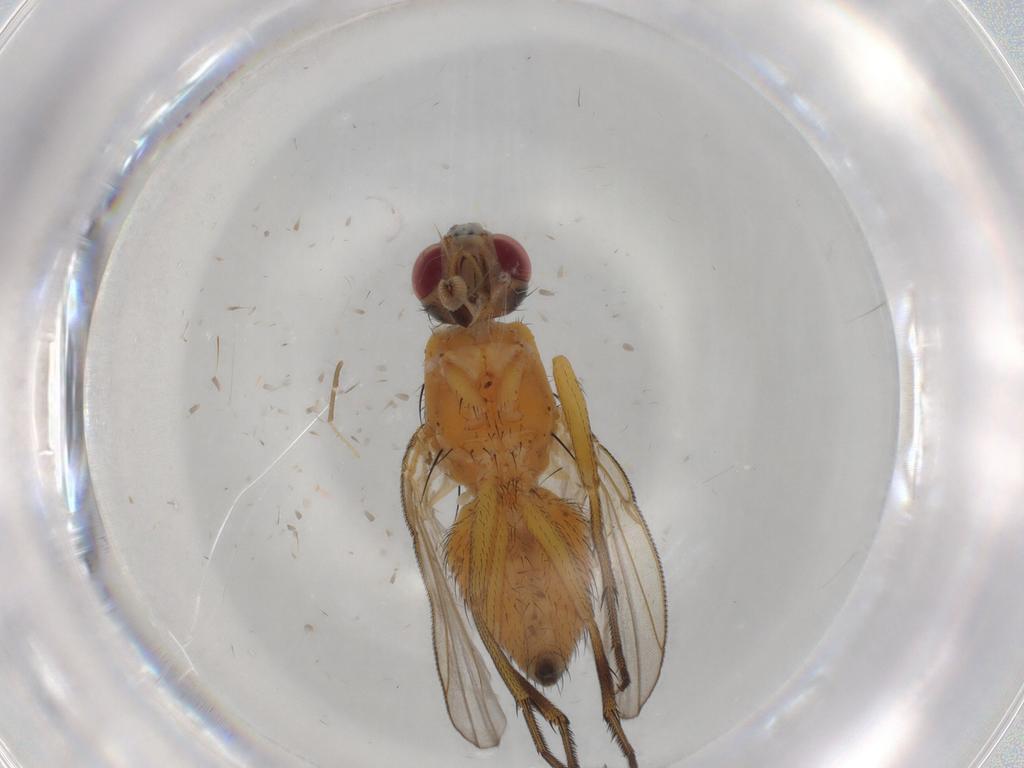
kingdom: Animalia
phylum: Arthropoda
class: Insecta
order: Diptera
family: Muscidae
